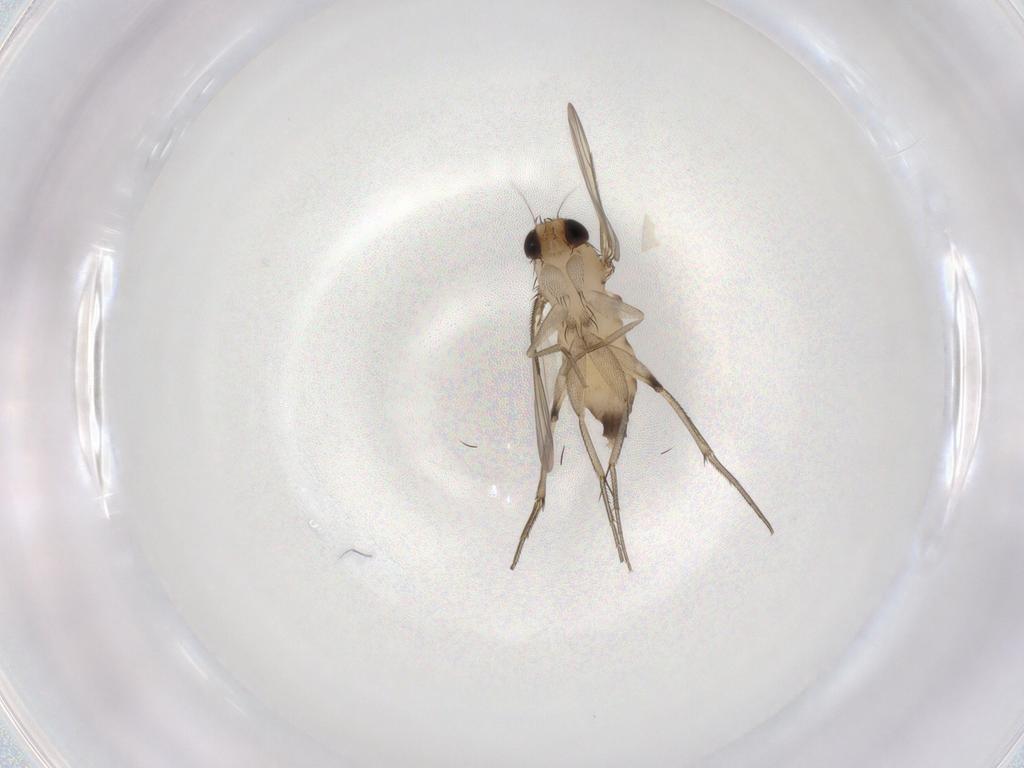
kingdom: Animalia
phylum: Arthropoda
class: Insecta
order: Diptera
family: Phoridae
